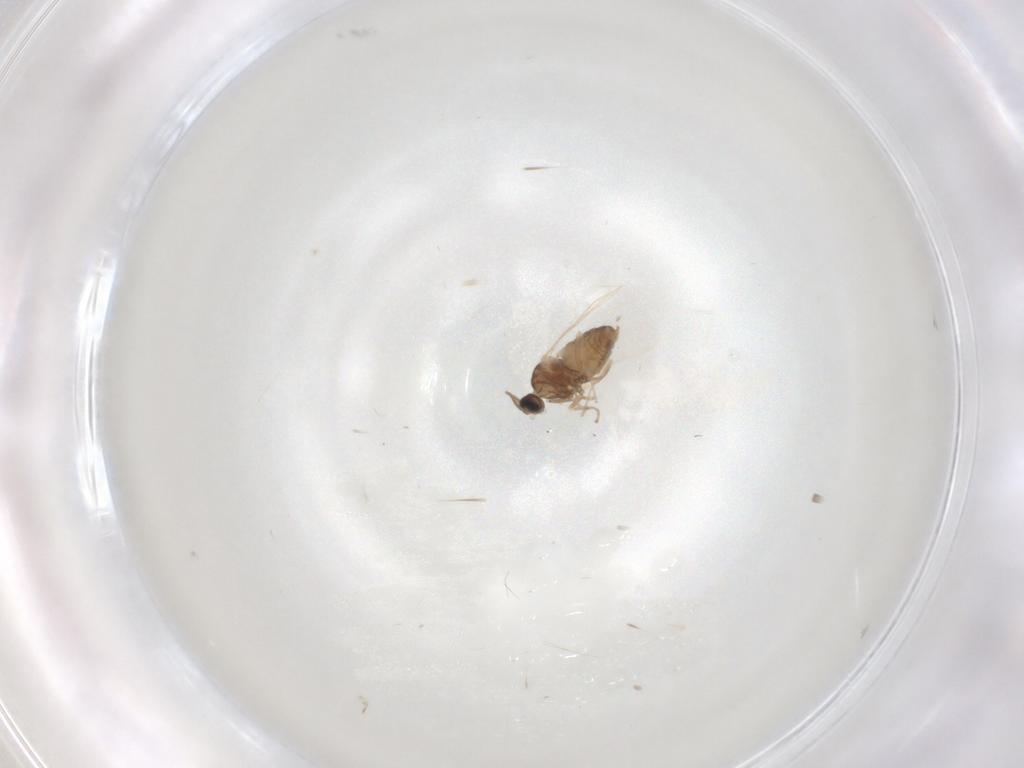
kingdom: Animalia
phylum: Arthropoda
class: Insecta
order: Diptera
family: Cecidomyiidae
